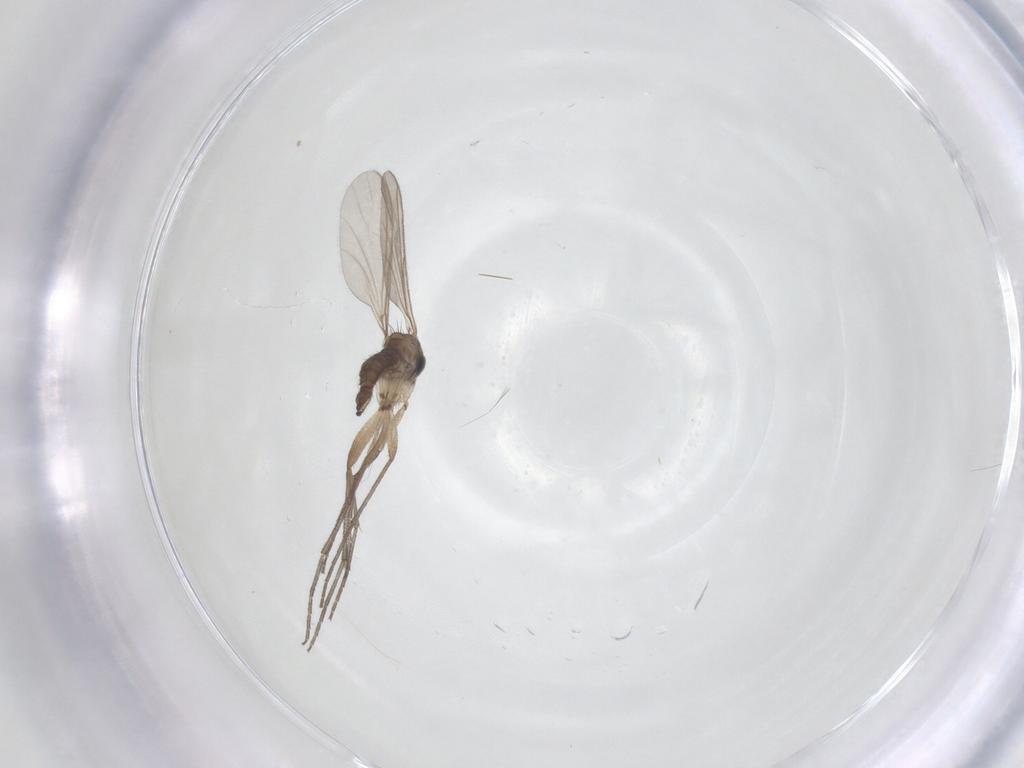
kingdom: Animalia
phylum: Arthropoda
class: Insecta
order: Diptera
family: Sciaridae
